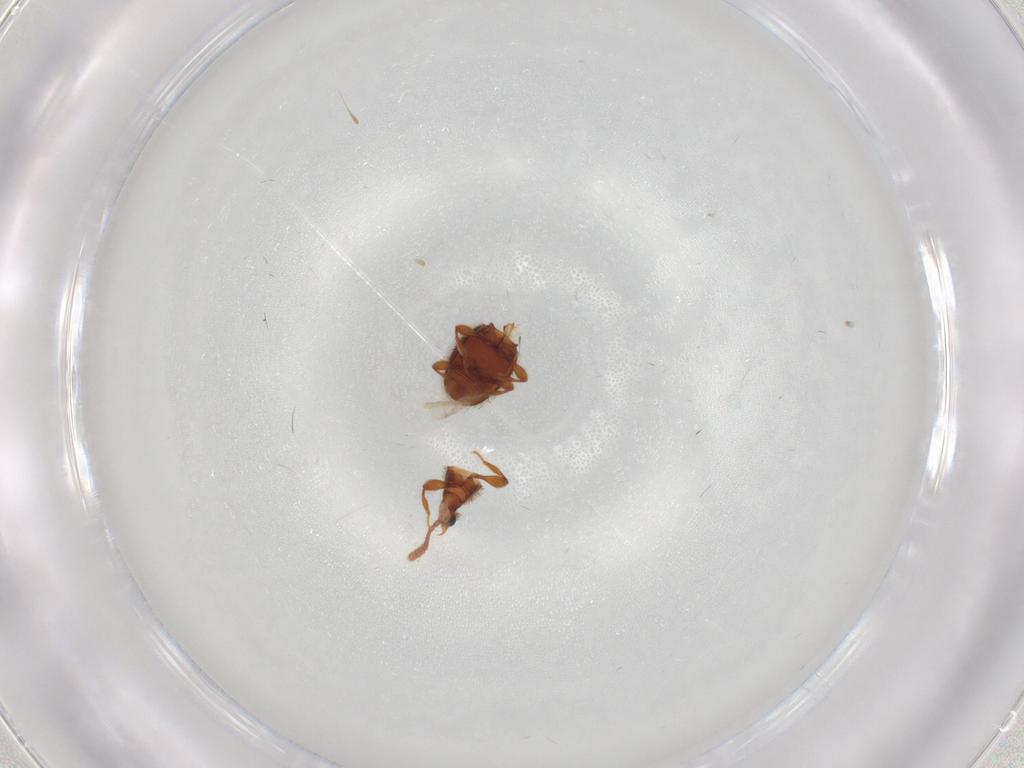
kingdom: Animalia
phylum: Arthropoda
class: Insecta
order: Coleoptera
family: Staphylinidae
